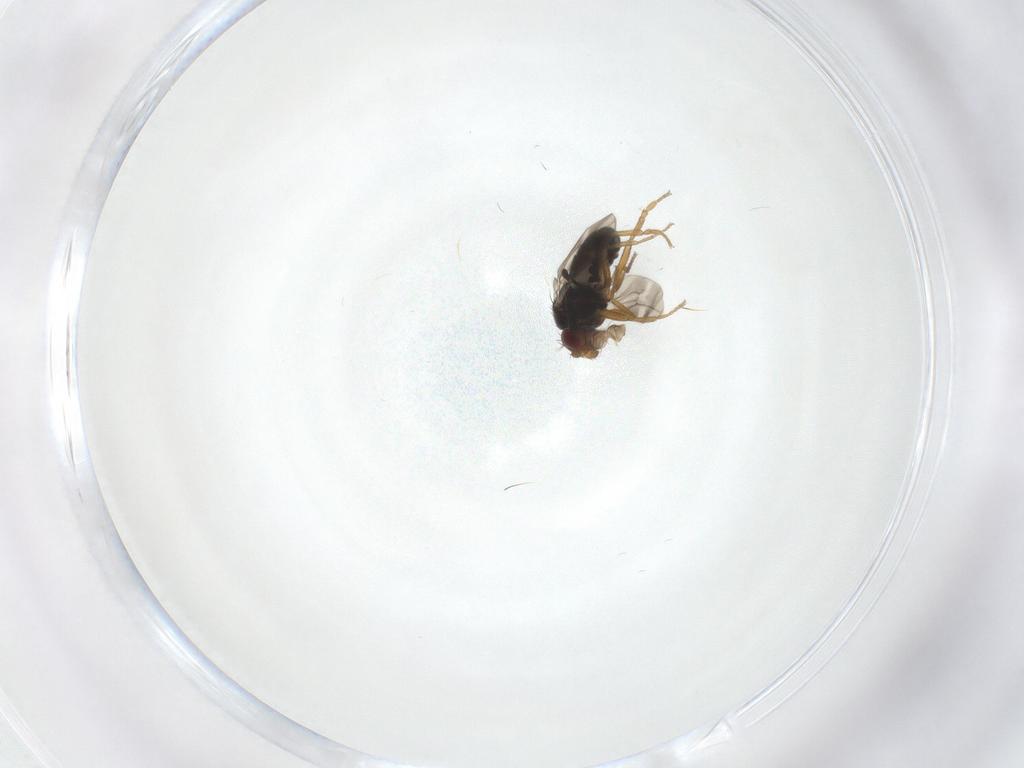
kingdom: Animalia
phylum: Arthropoda
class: Insecta
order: Diptera
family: Sphaeroceridae
